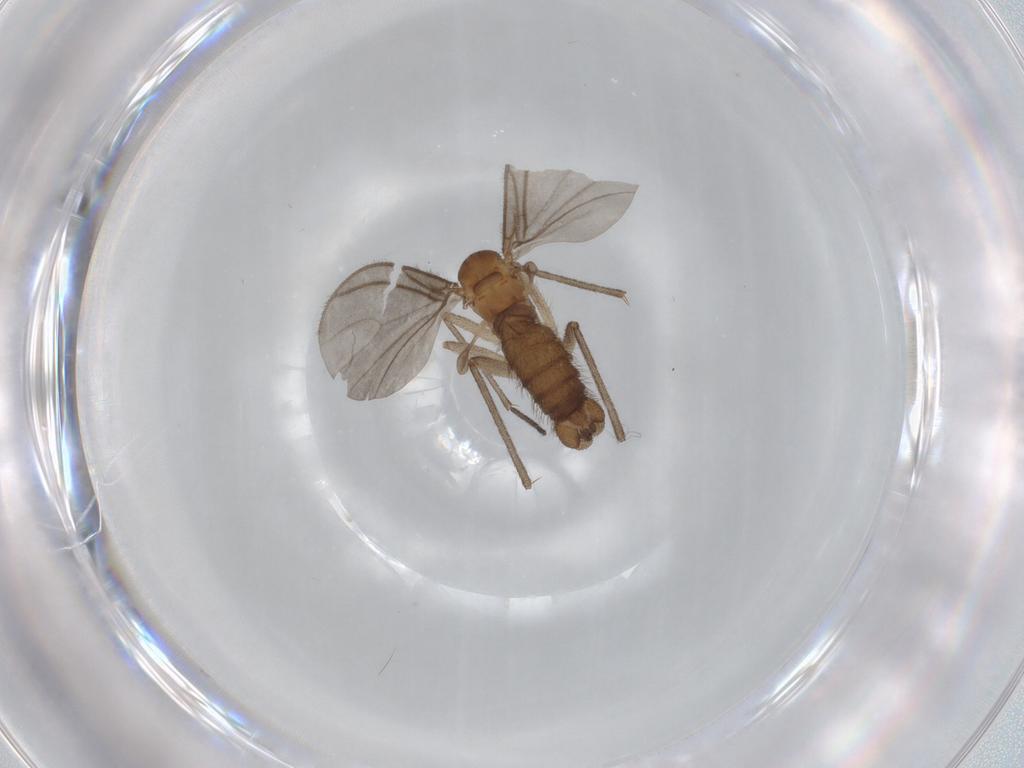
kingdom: Animalia
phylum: Arthropoda
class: Insecta
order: Diptera
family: Sciaridae
